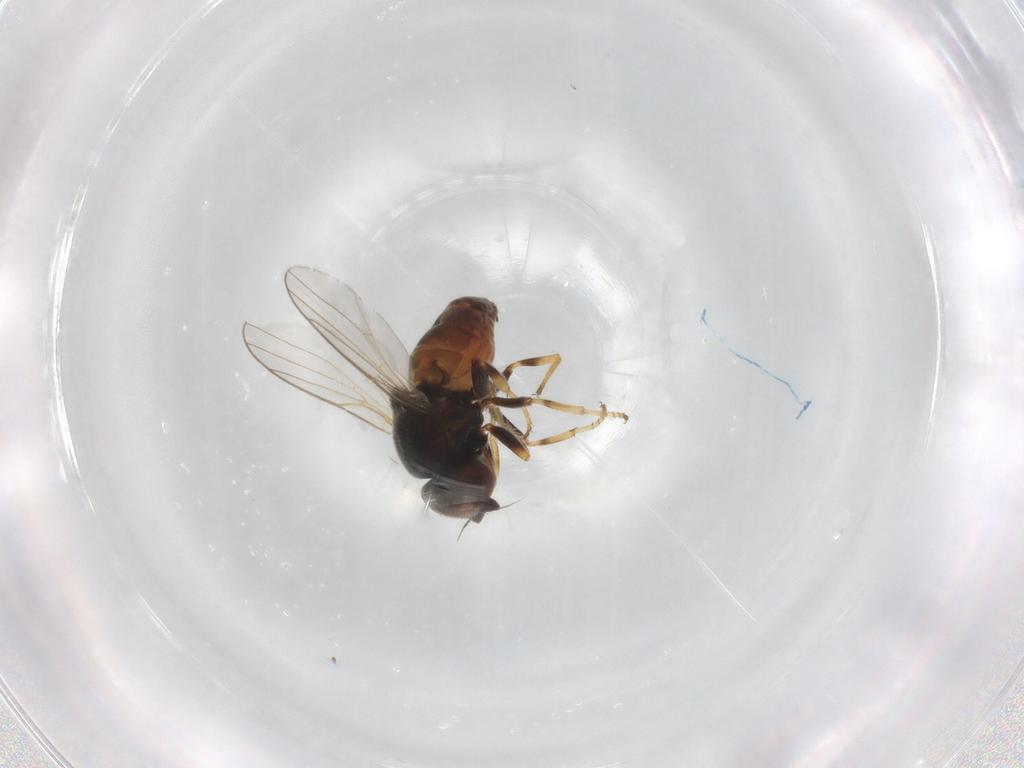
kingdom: Animalia
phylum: Arthropoda
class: Insecta
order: Diptera
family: Chloropidae
